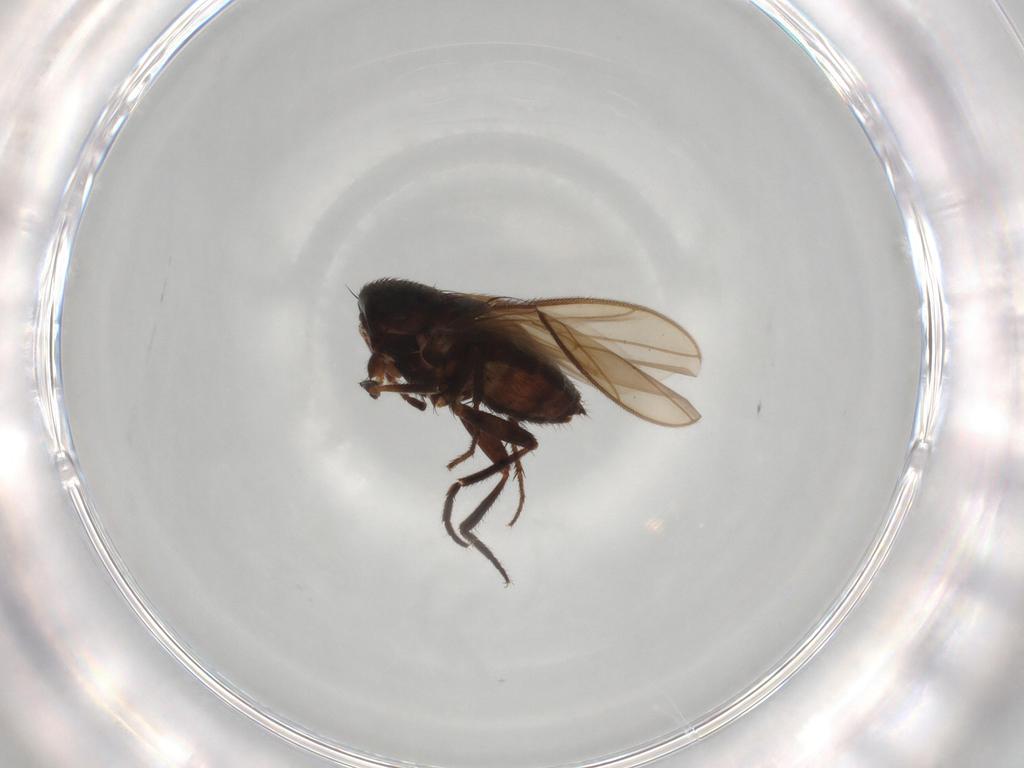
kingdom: Animalia
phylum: Arthropoda
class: Insecta
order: Diptera
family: Sphaeroceridae
